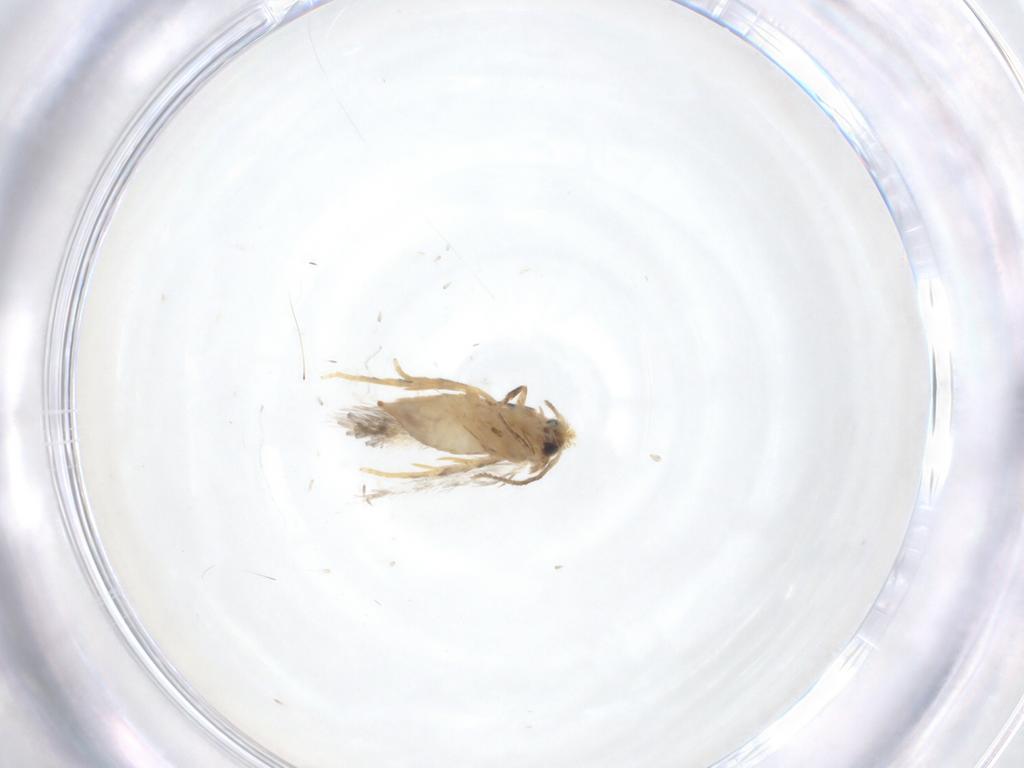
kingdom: Animalia
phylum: Arthropoda
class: Insecta
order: Lepidoptera
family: Nepticulidae
